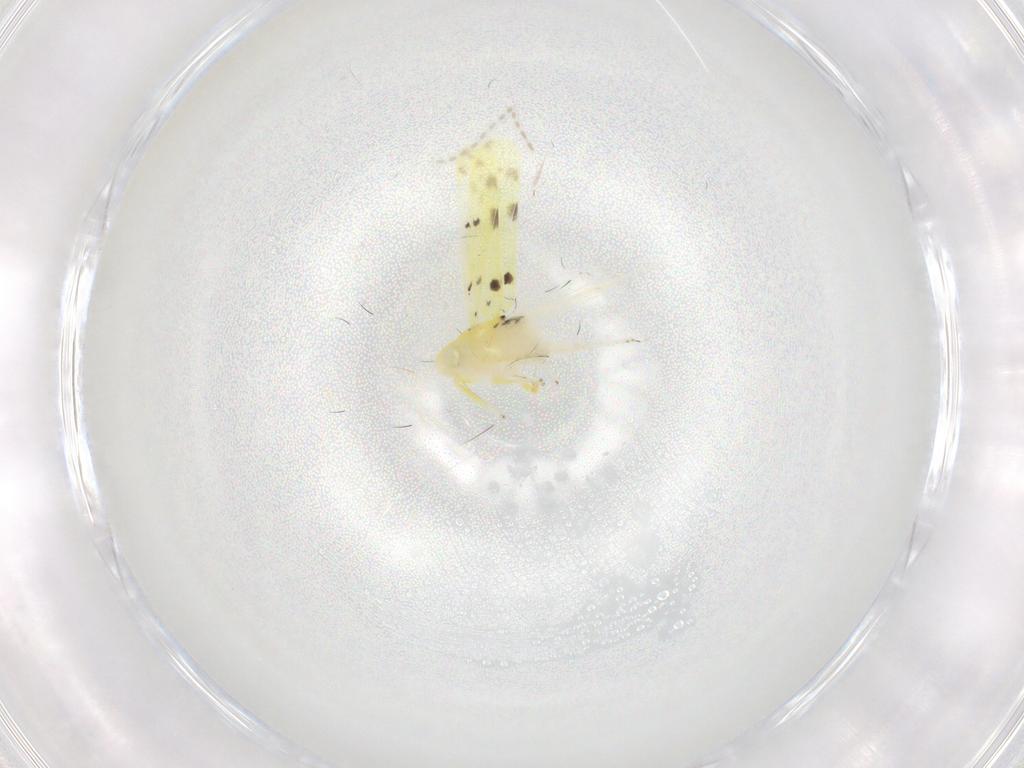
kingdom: Animalia
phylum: Arthropoda
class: Insecta
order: Hemiptera
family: Cicadellidae
